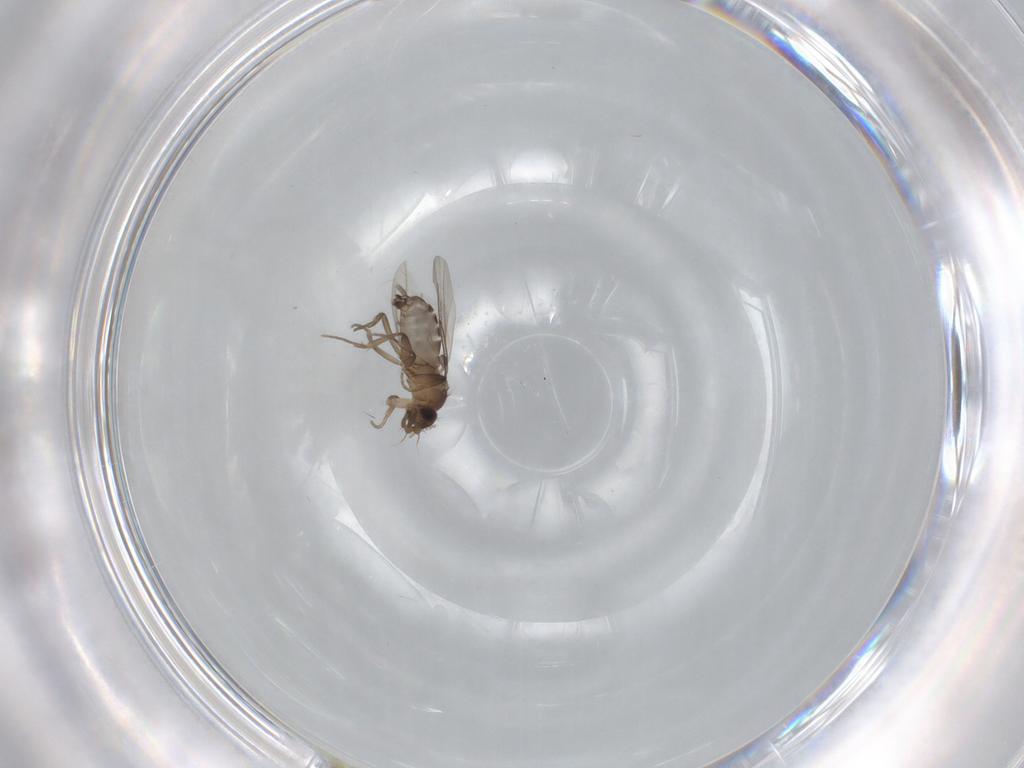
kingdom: Animalia
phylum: Arthropoda
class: Insecta
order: Diptera
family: Phoridae
